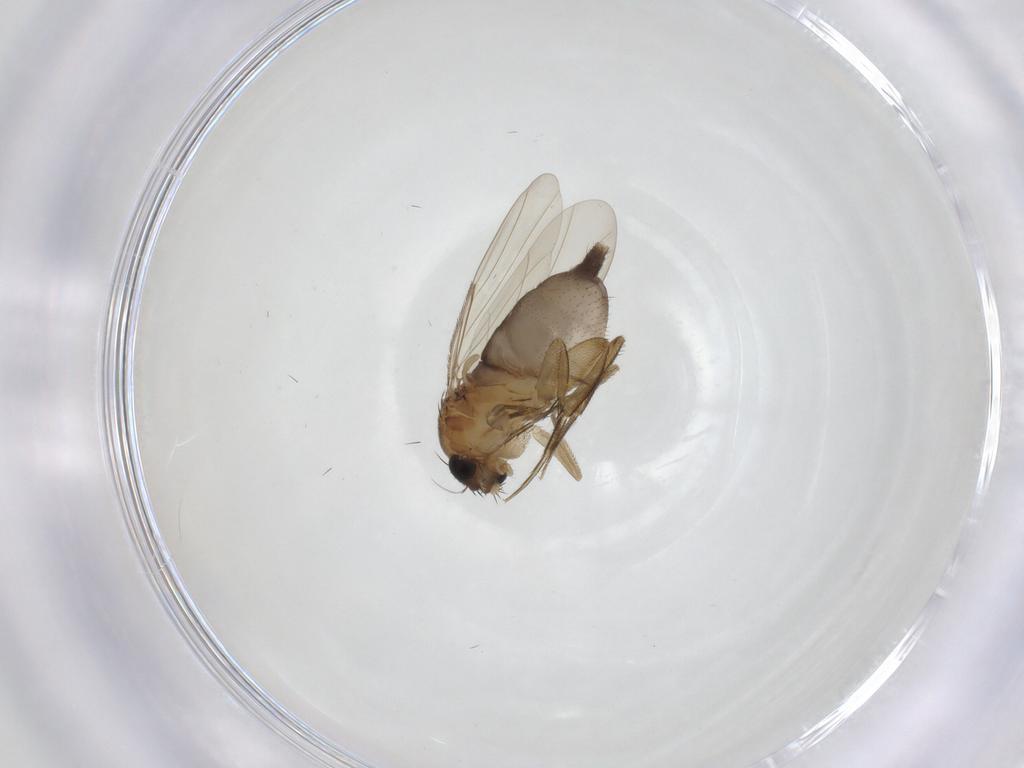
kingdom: Animalia
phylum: Arthropoda
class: Insecta
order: Diptera
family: Phoridae
